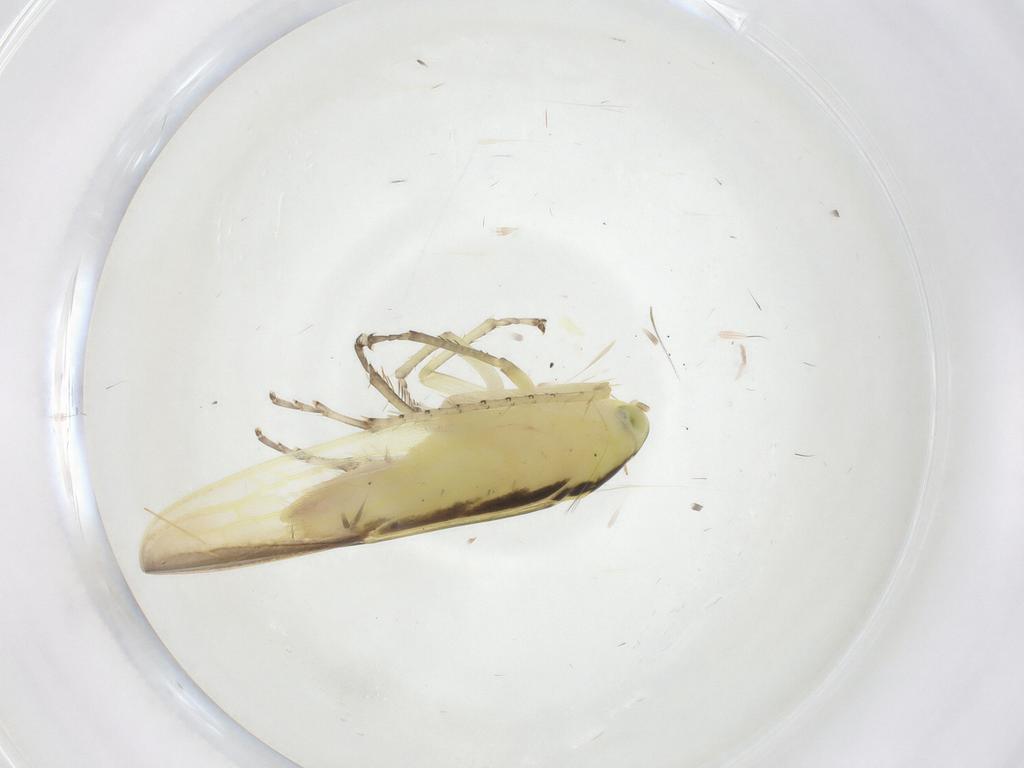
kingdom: Animalia
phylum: Arthropoda
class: Insecta
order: Hemiptera
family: Cicadellidae
